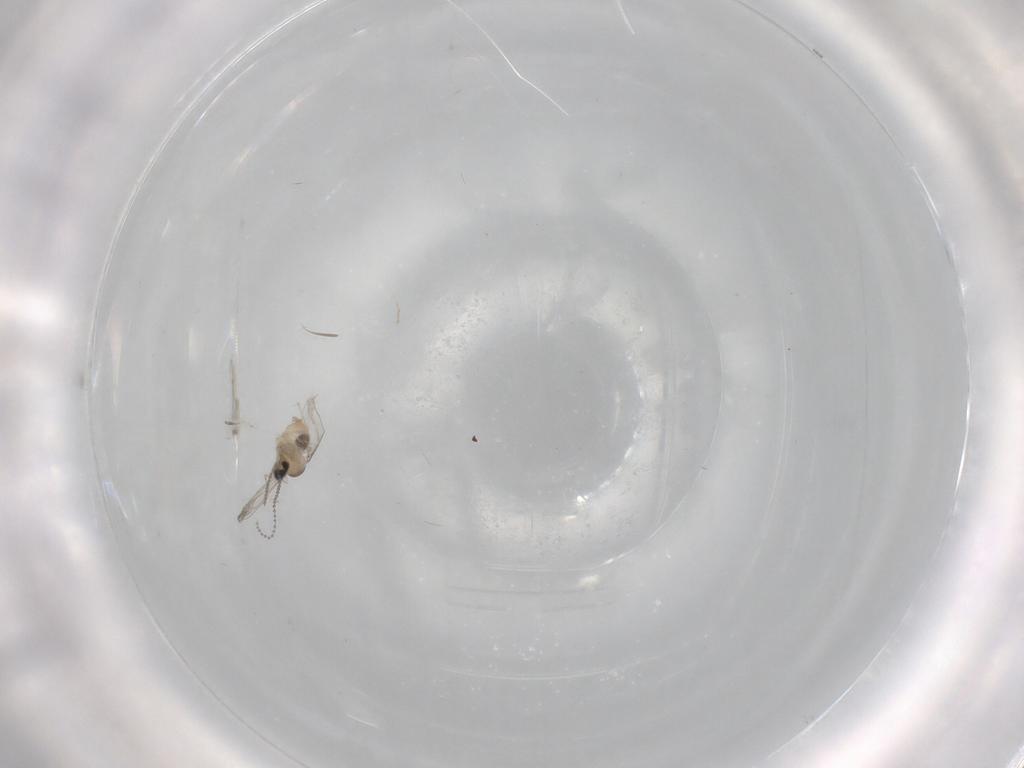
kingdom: Animalia
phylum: Arthropoda
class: Insecta
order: Diptera
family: Cecidomyiidae
